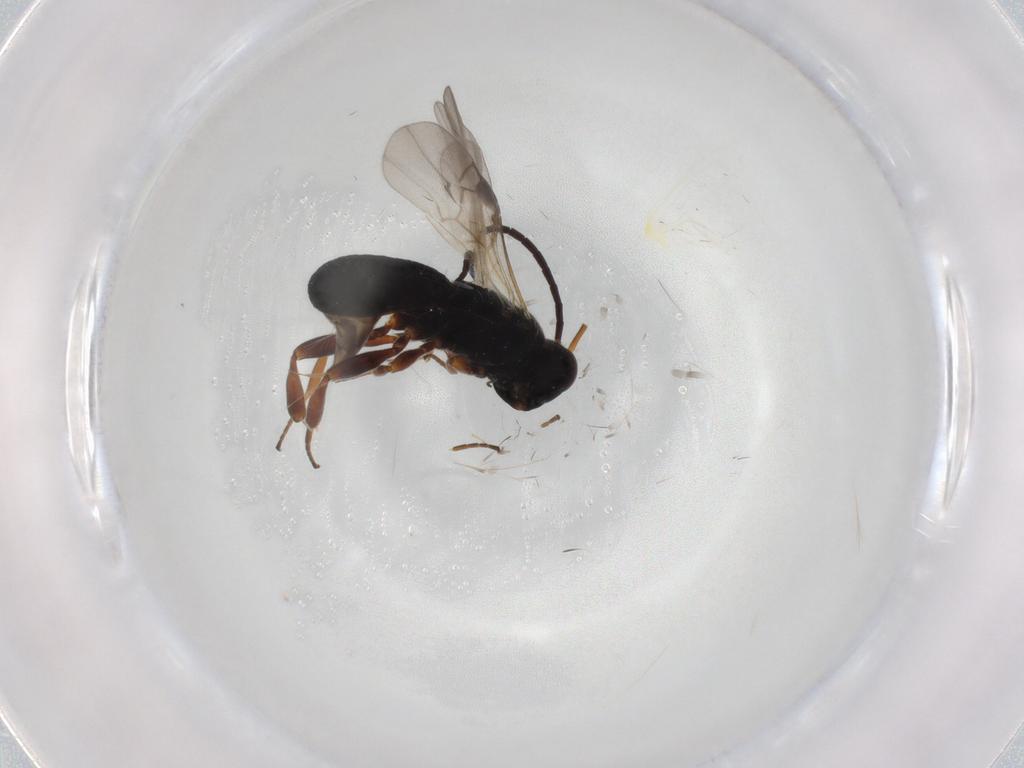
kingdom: Animalia
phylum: Arthropoda
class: Insecta
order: Hymenoptera
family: Braconidae
